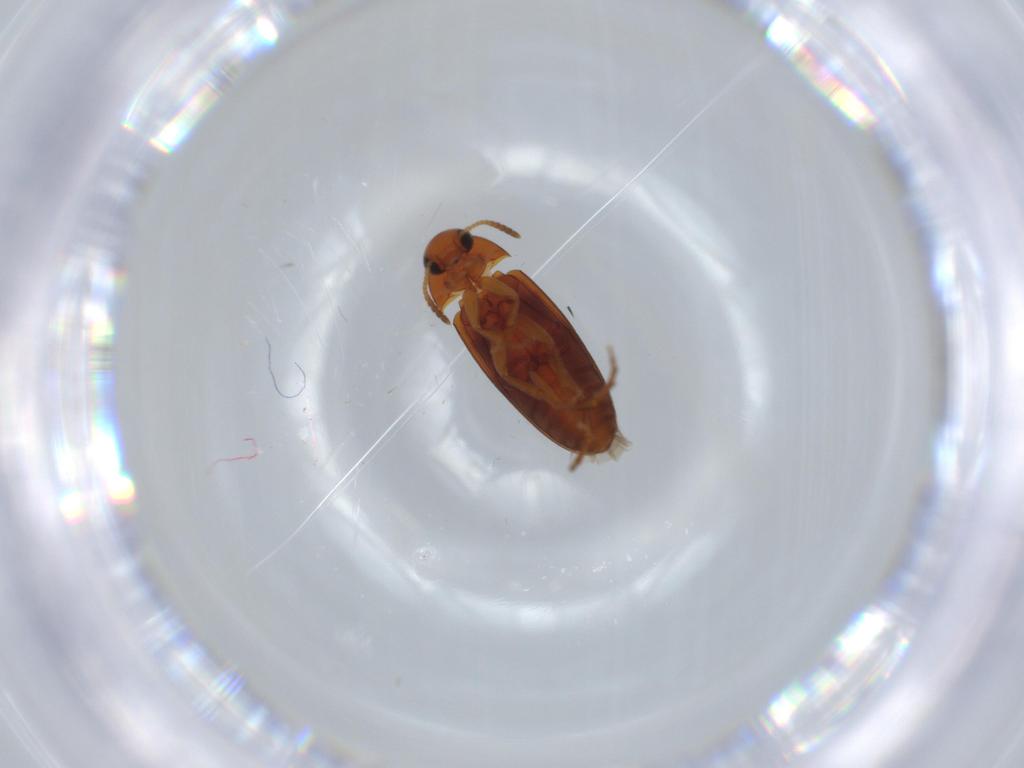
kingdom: Animalia
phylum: Arthropoda
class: Insecta
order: Coleoptera
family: Scraptiidae
